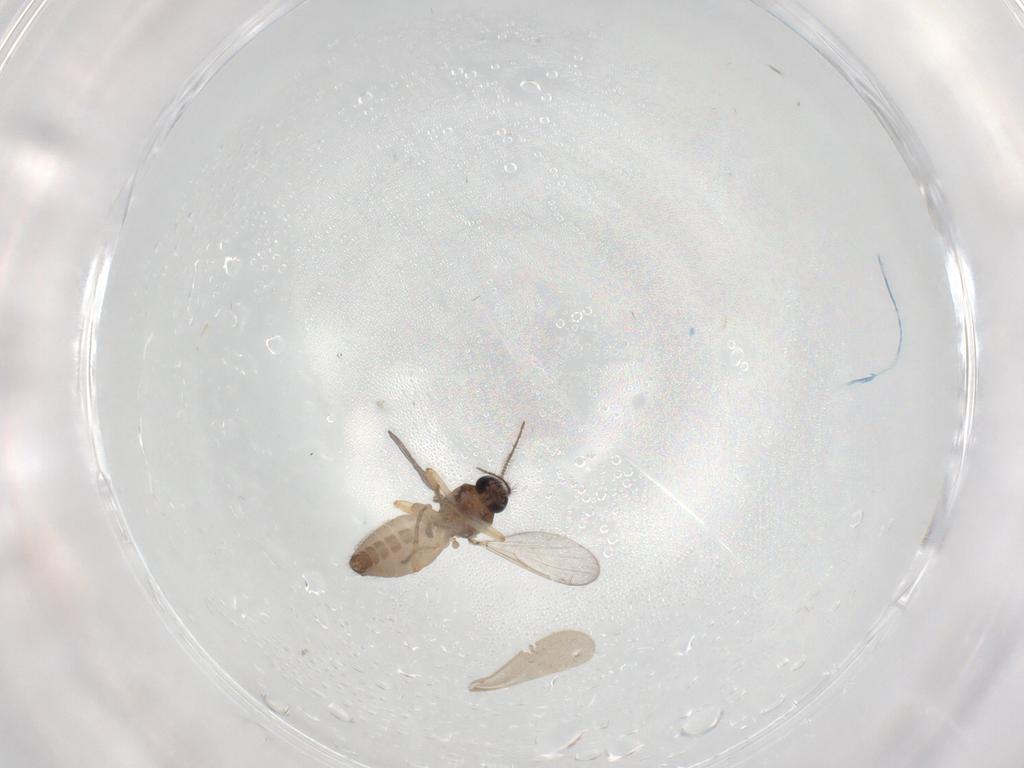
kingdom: Animalia
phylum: Arthropoda
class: Insecta
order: Diptera
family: Ceratopogonidae
